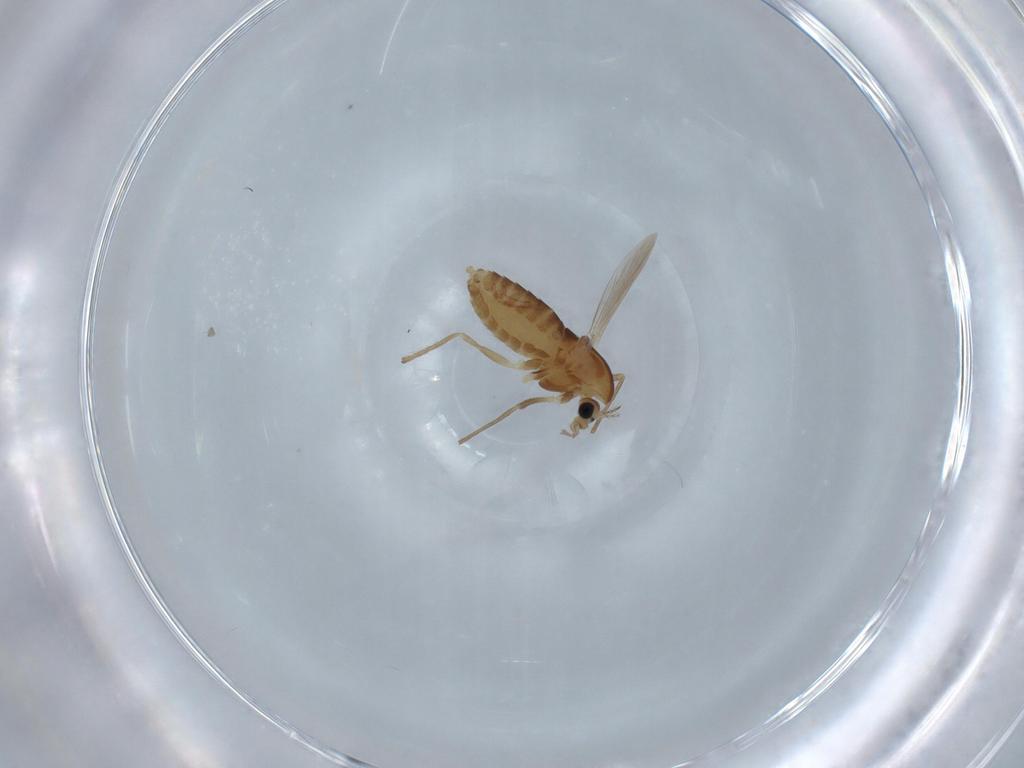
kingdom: Animalia
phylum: Arthropoda
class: Insecta
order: Diptera
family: Chironomidae
